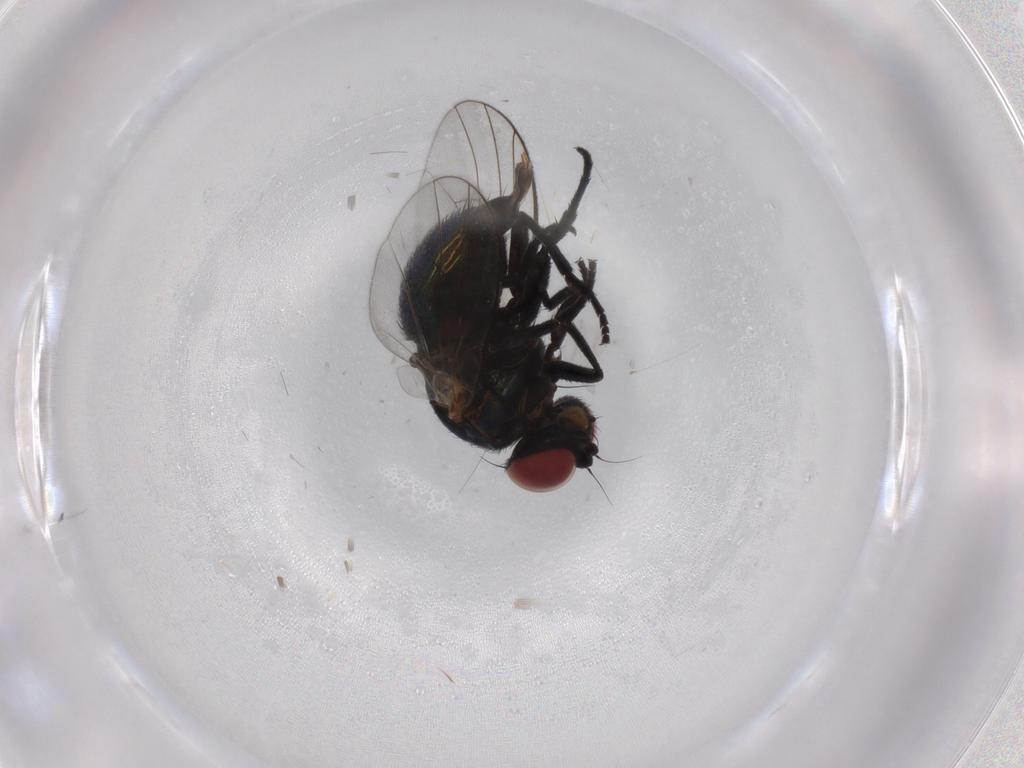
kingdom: Animalia
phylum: Arthropoda
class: Insecta
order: Diptera
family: Agromyzidae
